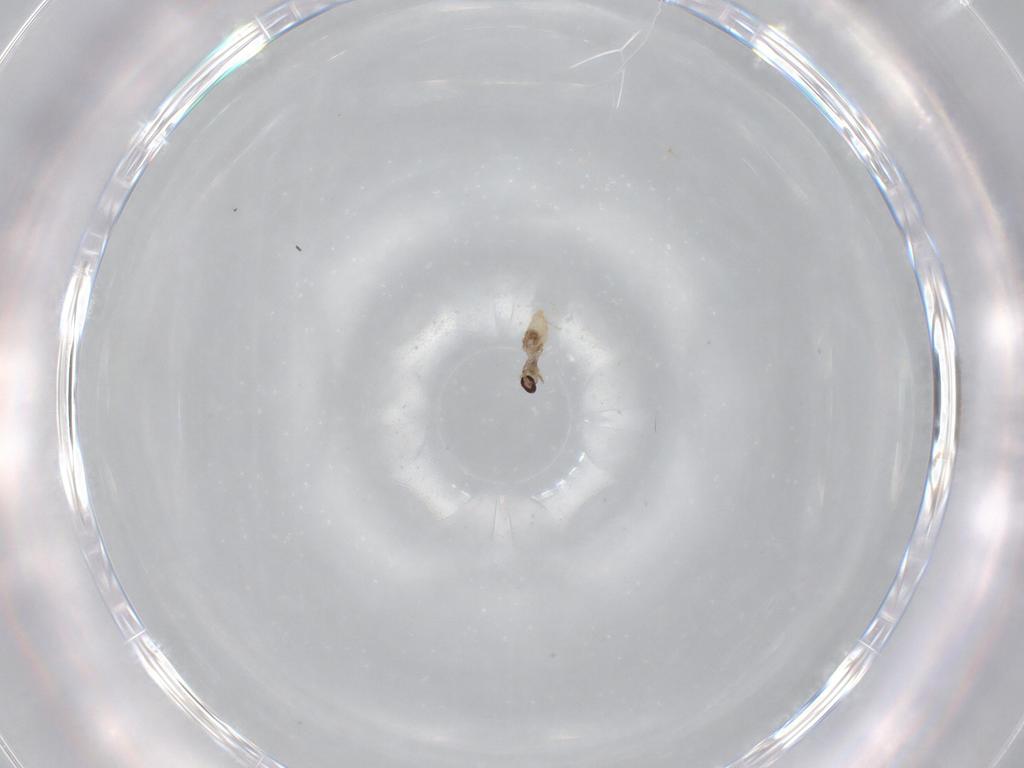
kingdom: Animalia
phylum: Arthropoda
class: Insecta
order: Diptera
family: Cecidomyiidae
